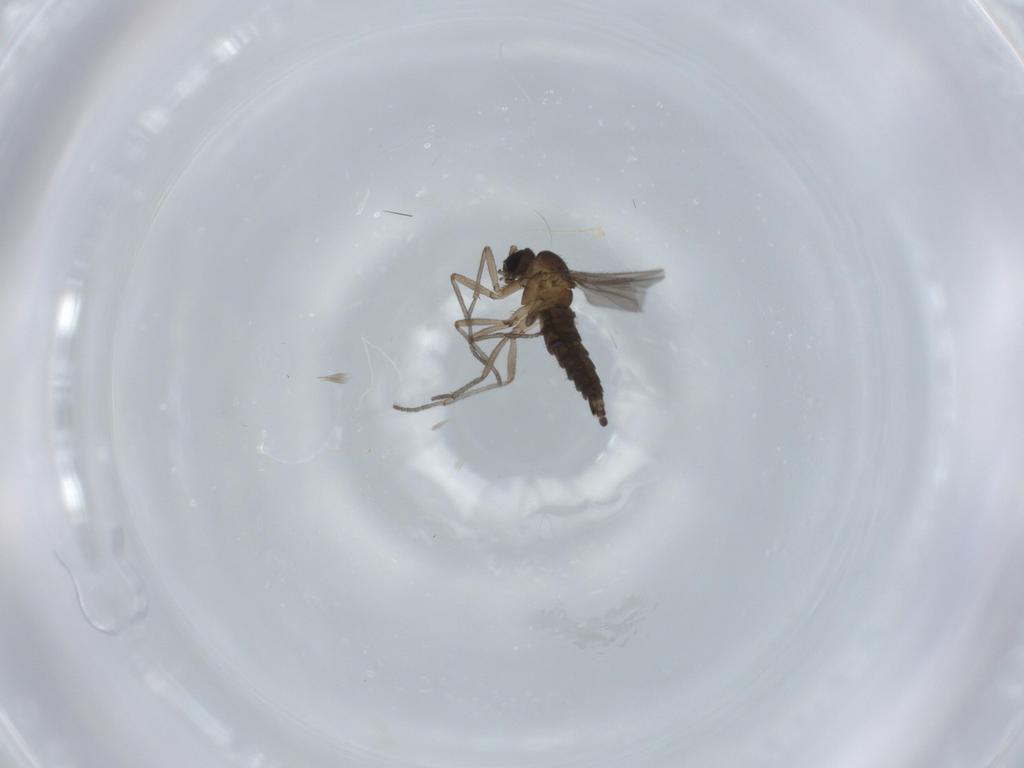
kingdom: Animalia
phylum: Arthropoda
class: Insecta
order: Diptera
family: Sciaridae
